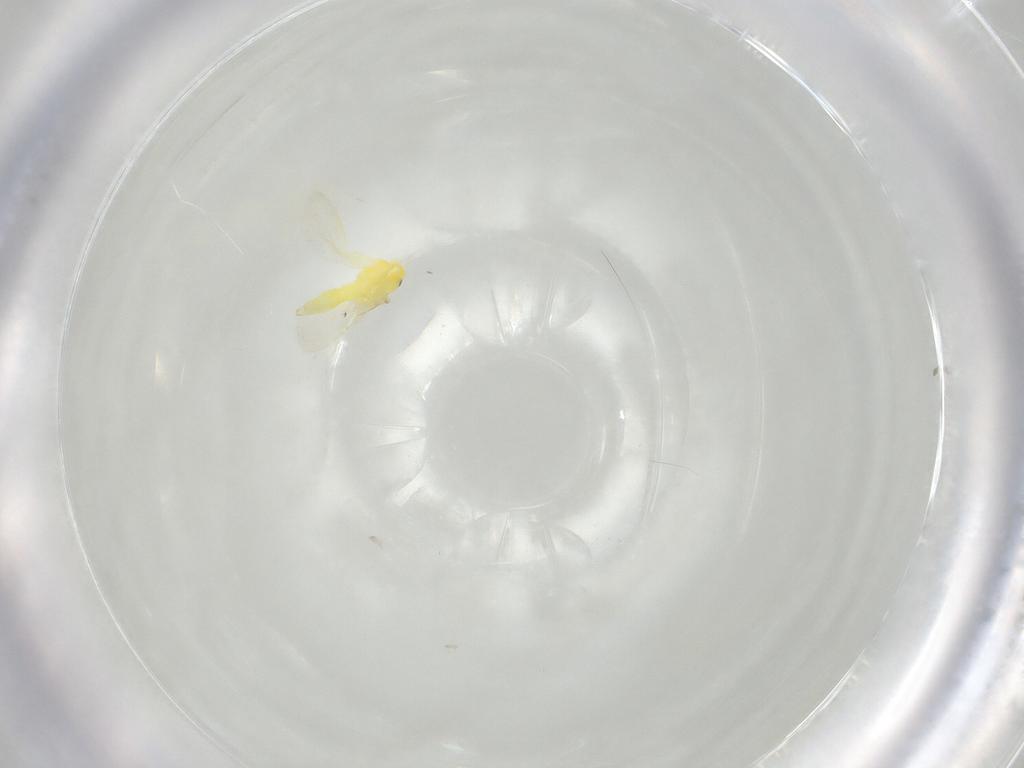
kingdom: Animalia
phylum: Arthropoda
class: Insecta
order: Hemiptera
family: Aleyrodidae
